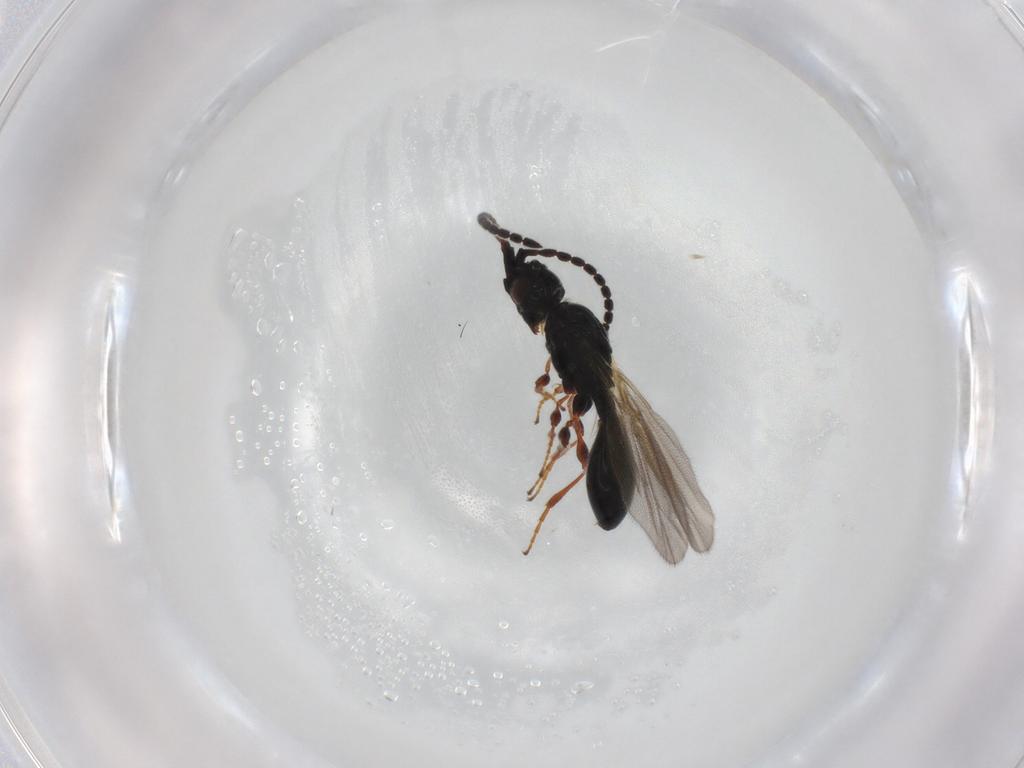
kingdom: Animalia
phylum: Arthropoda
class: Insecta
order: Hymenoptera
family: Diapriidae
